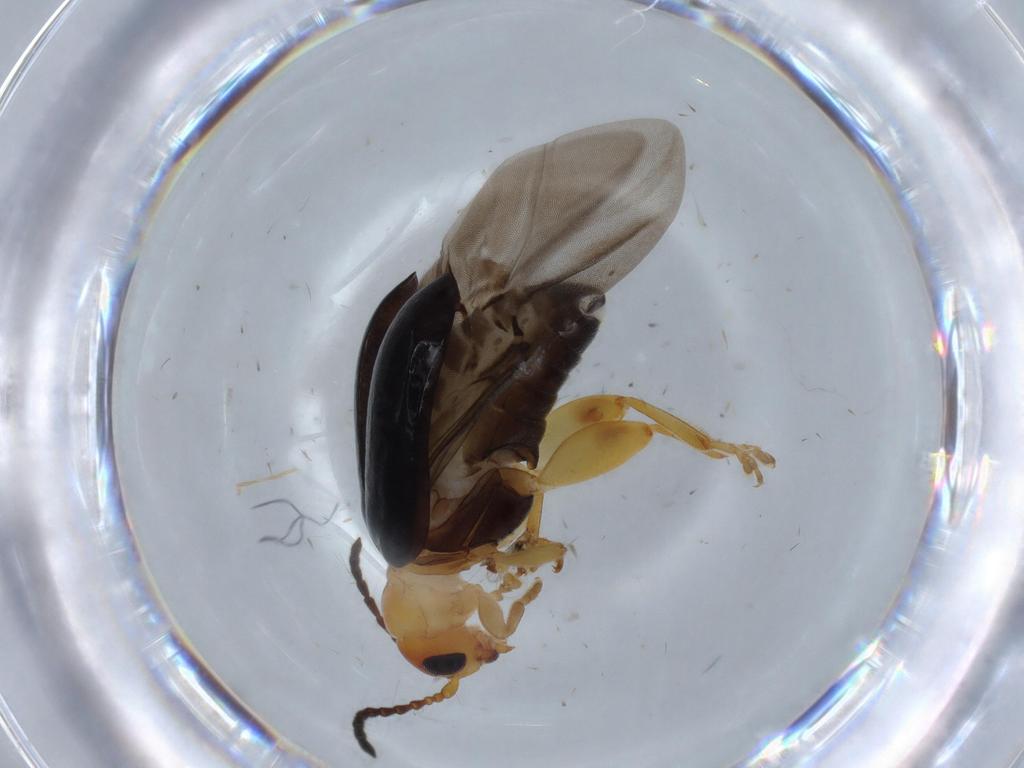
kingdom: Animalia
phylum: Arthropoda
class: Insecta
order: Coleoptera
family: Chrysomelidae
